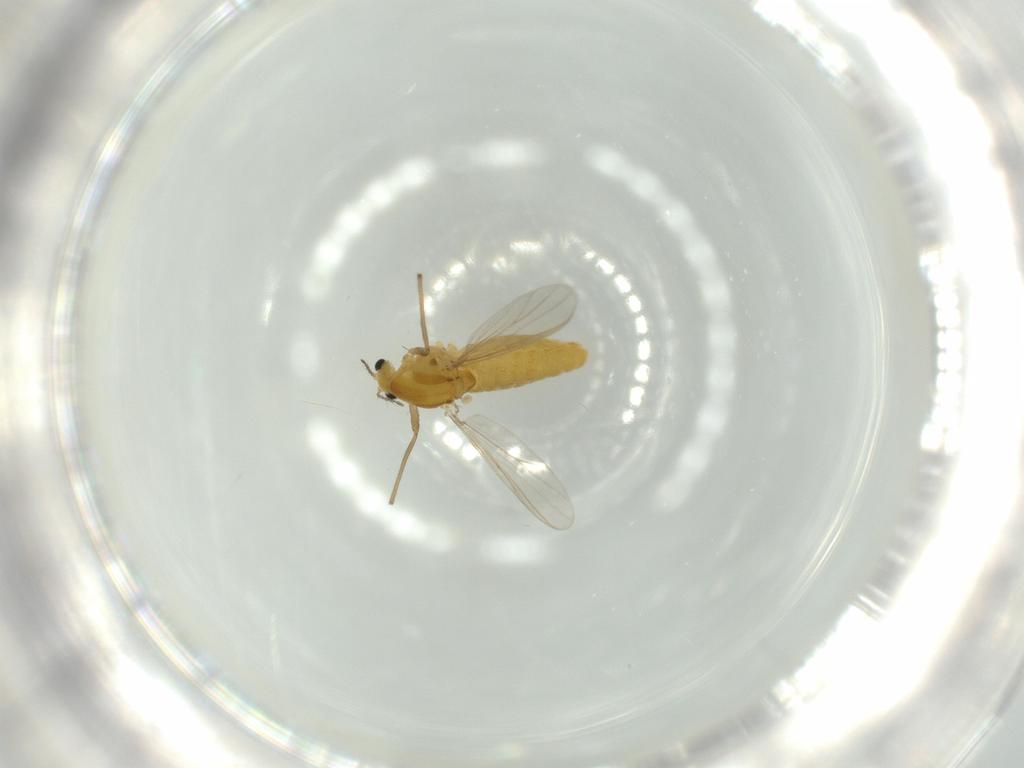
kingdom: Animalia
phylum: Arthropoda
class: Insecta
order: Diptera
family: Chironomidae
